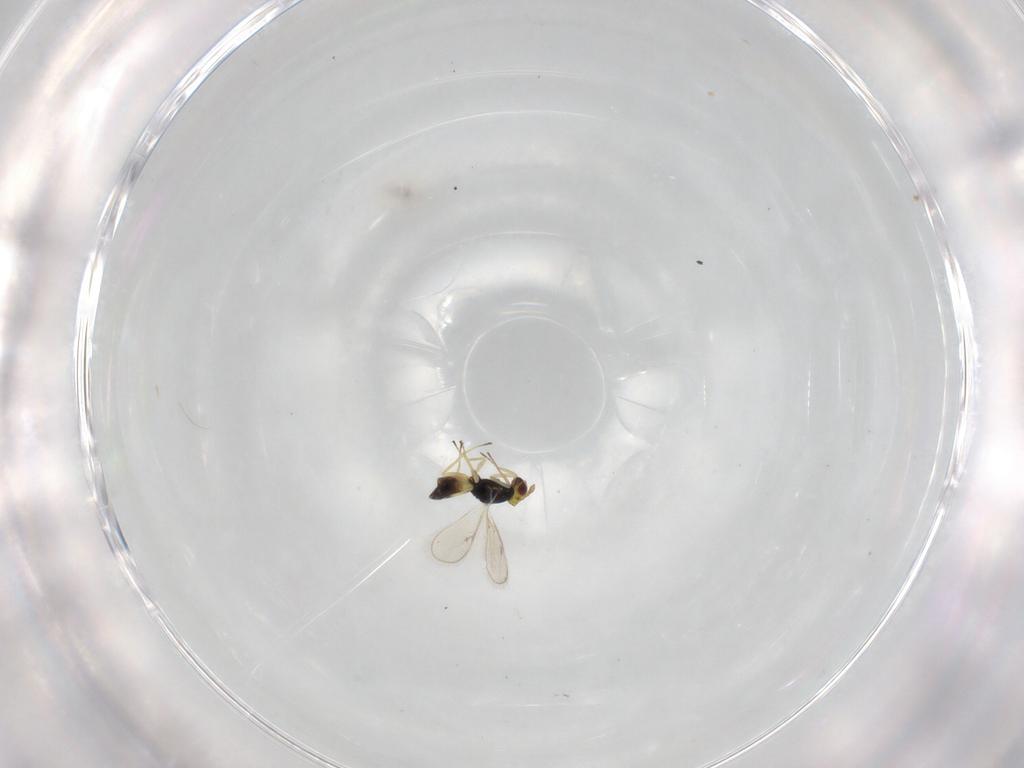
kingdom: Animalia
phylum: Arthropoda
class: Insecta
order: Hymenoptera
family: Eulophidae
